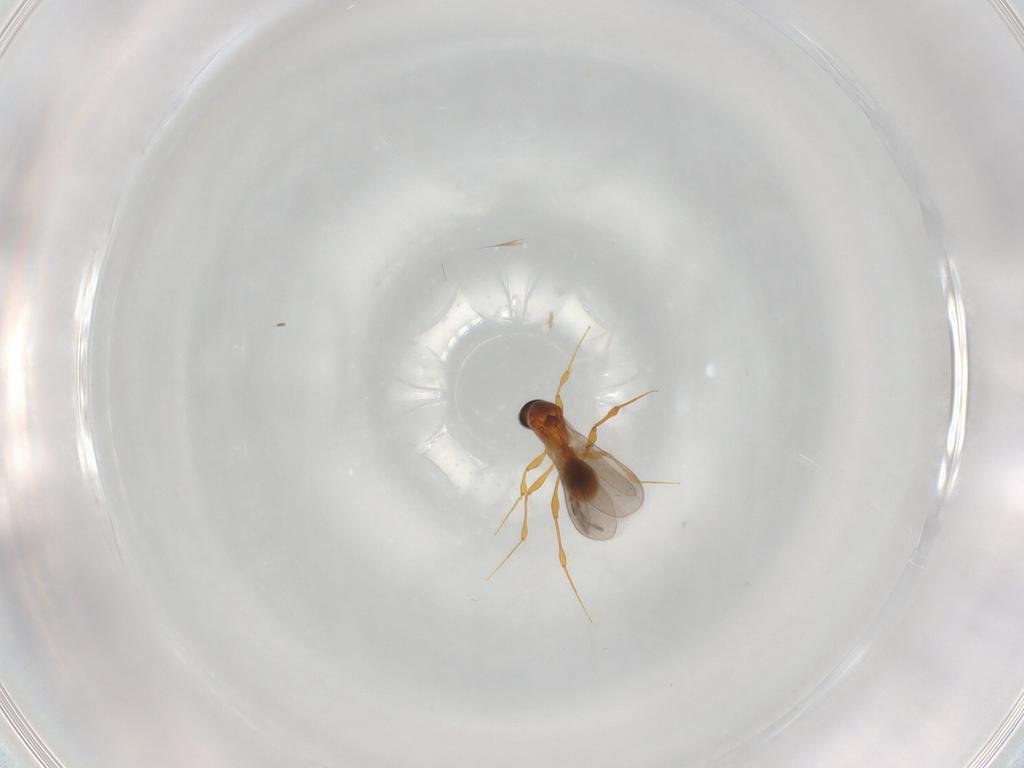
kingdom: Animalia
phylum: Arthropoda
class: Insecta
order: Hymenoptera
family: Platygastridae
